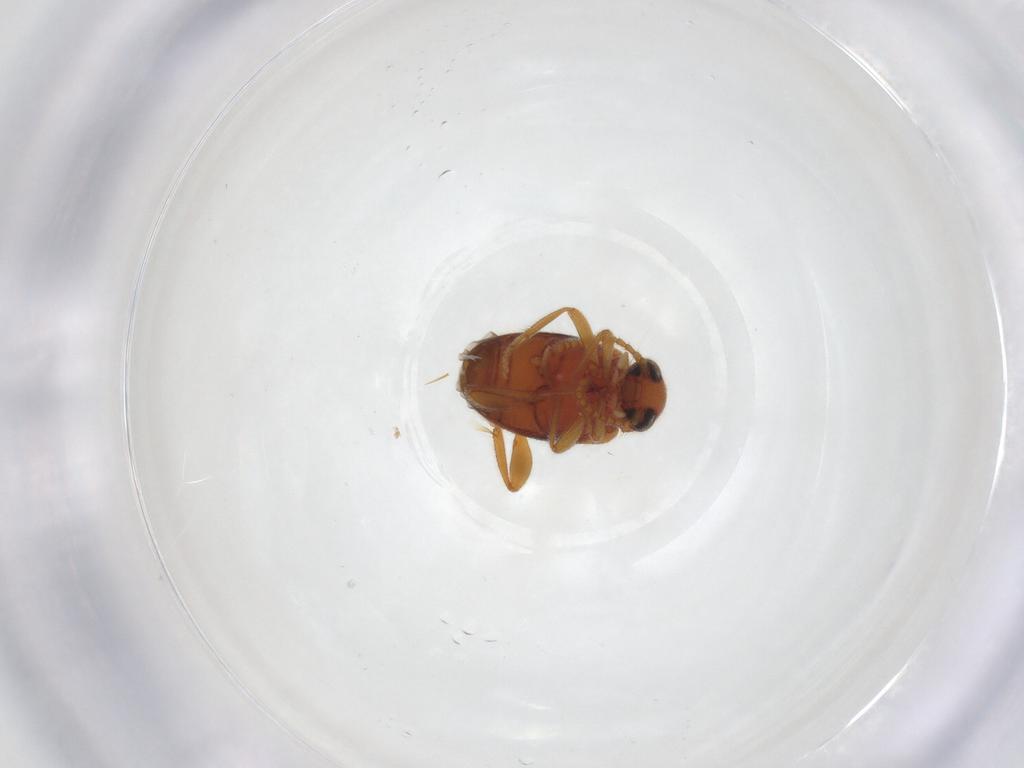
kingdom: Animalia
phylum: Arthropoda
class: Insecta
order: Coleoptera
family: Aderidae
